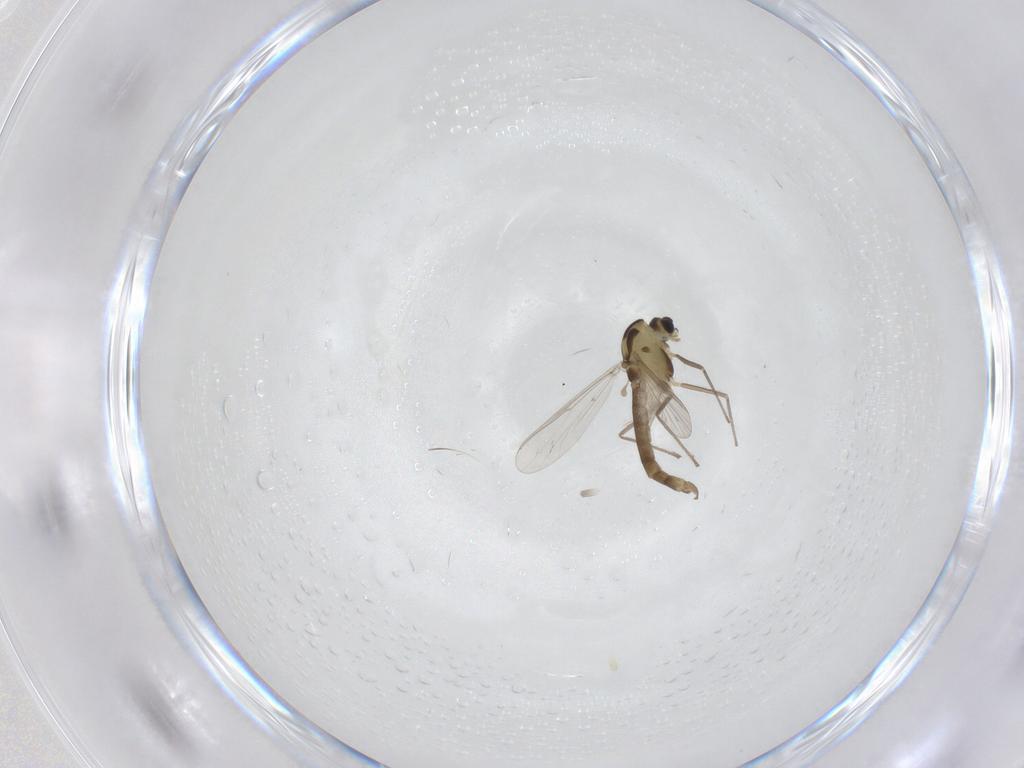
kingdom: Animalia
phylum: Arthropoda
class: Insecta
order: Diptera
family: Chironomidae
